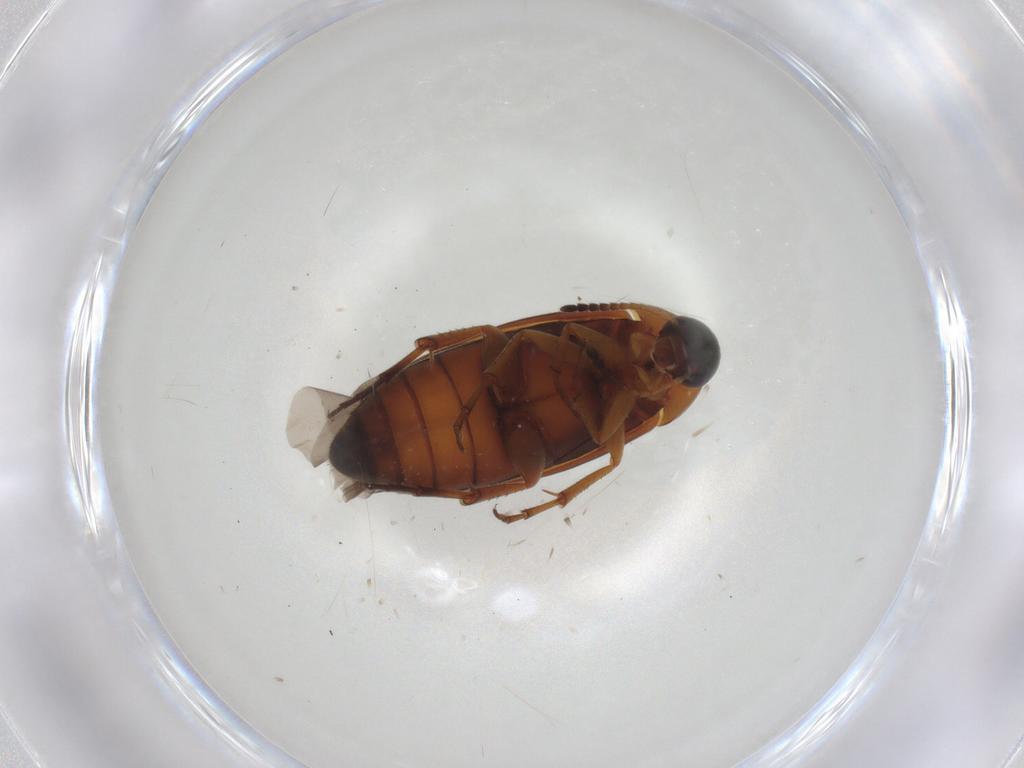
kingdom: Animalia
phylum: Arthropoda
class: Insecta
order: Coleoptera
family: Scraptiidae
